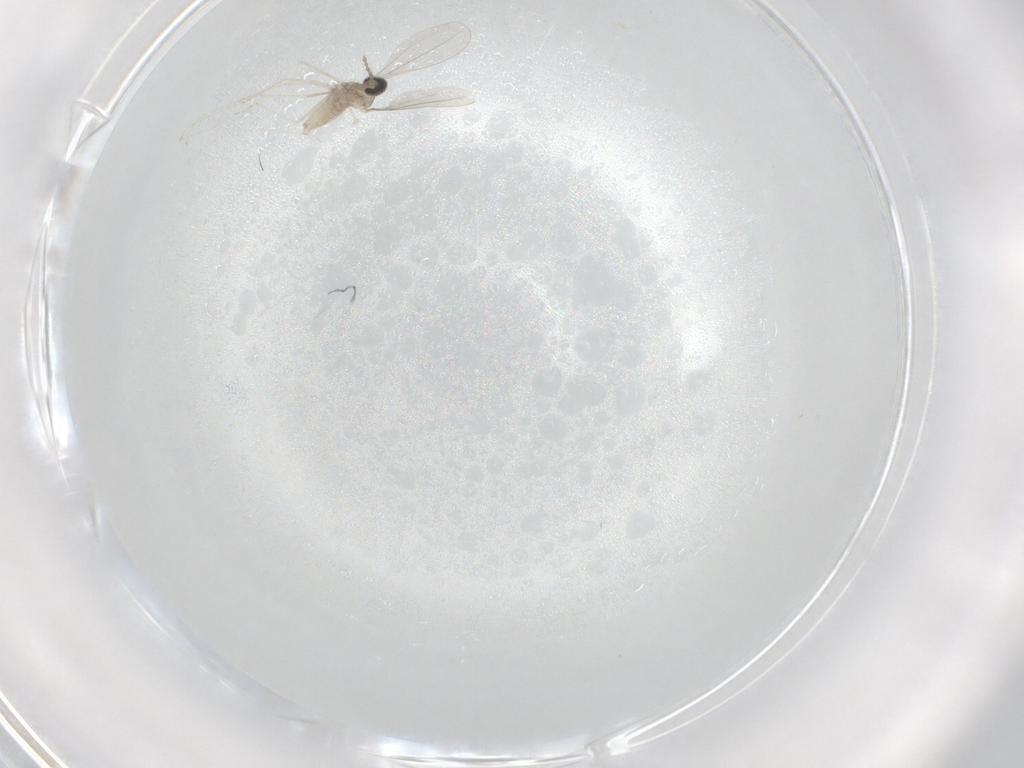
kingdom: Animalia
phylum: Arthropoda
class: Insecta
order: Diptera
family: Cecidomyiidae
